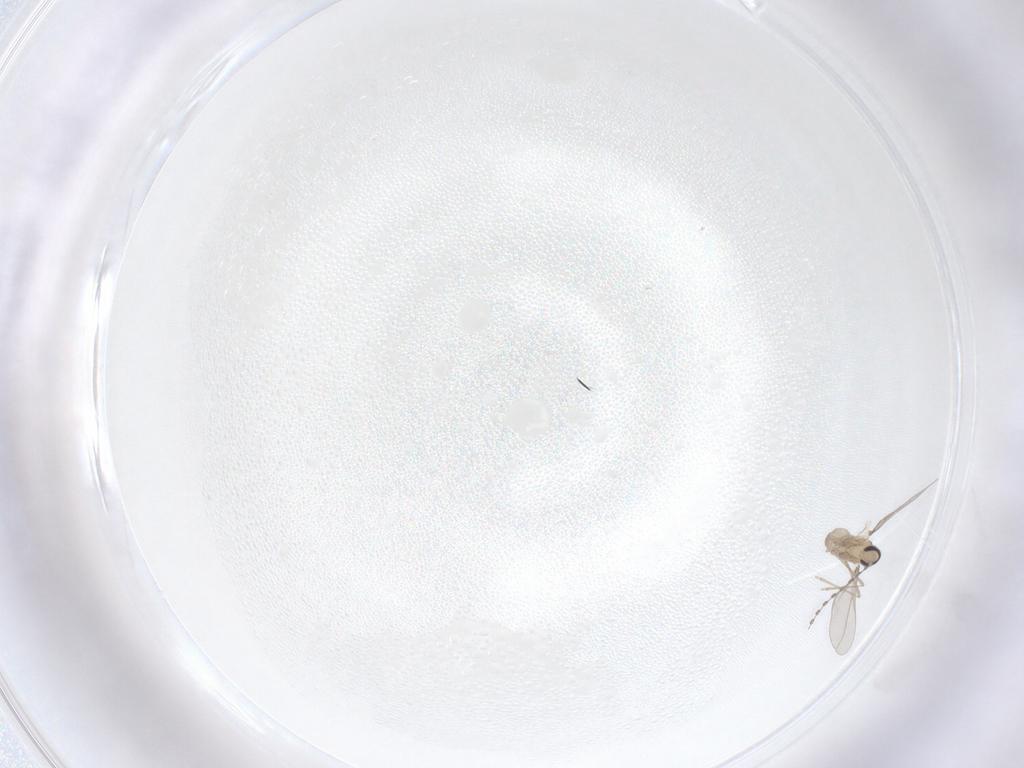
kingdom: Animalia
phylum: Arthropoda
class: Insecta
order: Diptera
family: Cecidomyiidae
